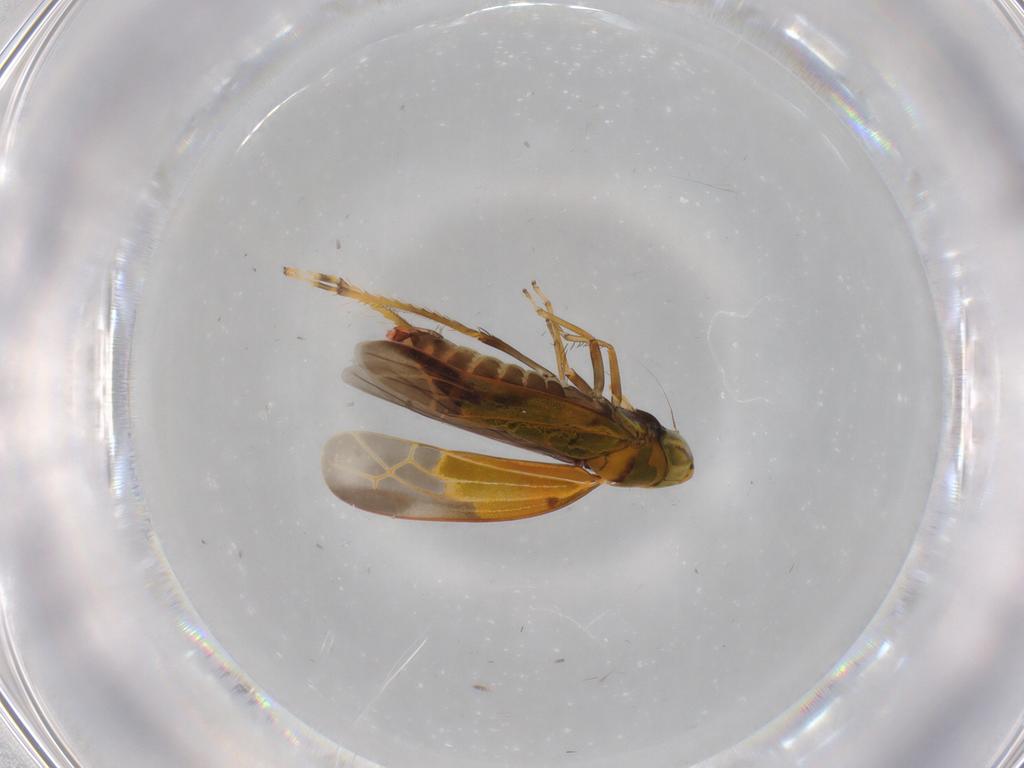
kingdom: Animalia
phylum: Arthropoda
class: Insecta
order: Hemiptera
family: Cicadellidae
